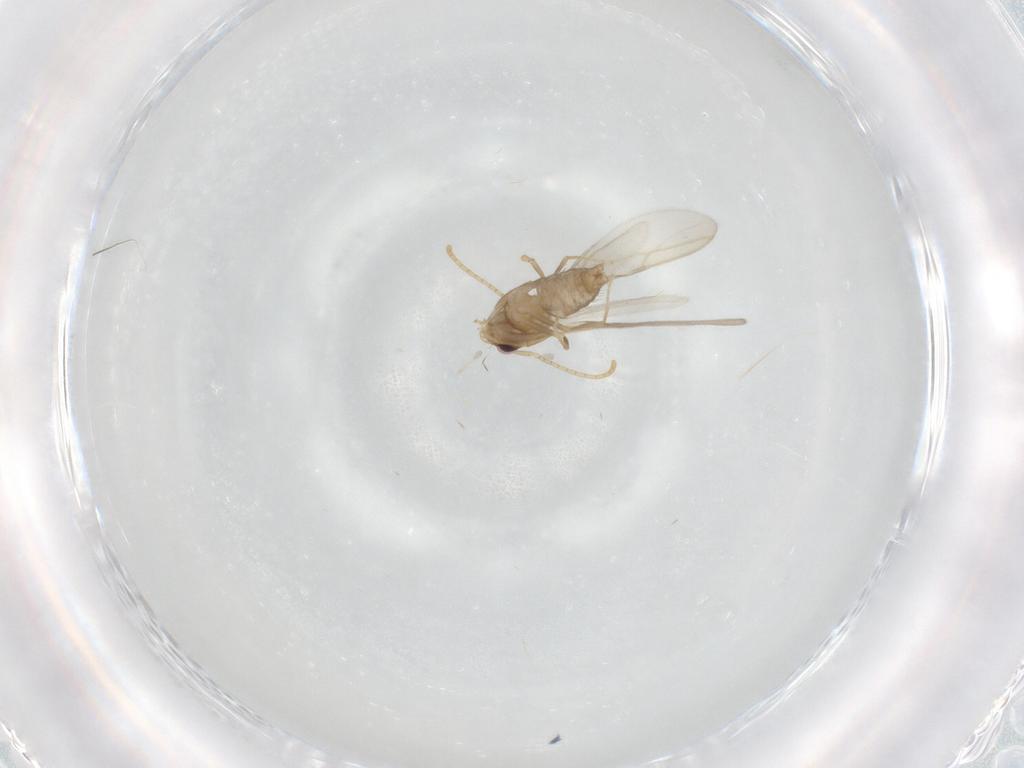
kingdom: Animalia
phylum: Arthropoda
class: Insecta
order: Hymenoptera
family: Formicidae
